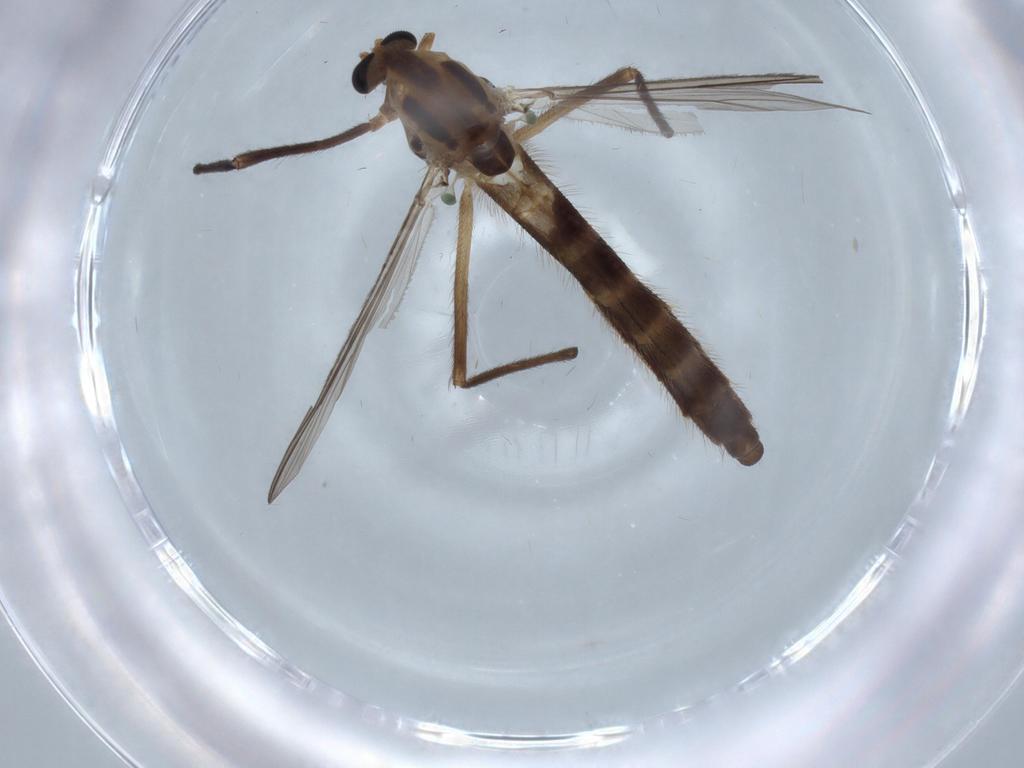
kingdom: Animalia
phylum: Arthropoda
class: Insecta
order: Diptera
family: Chironomidae
